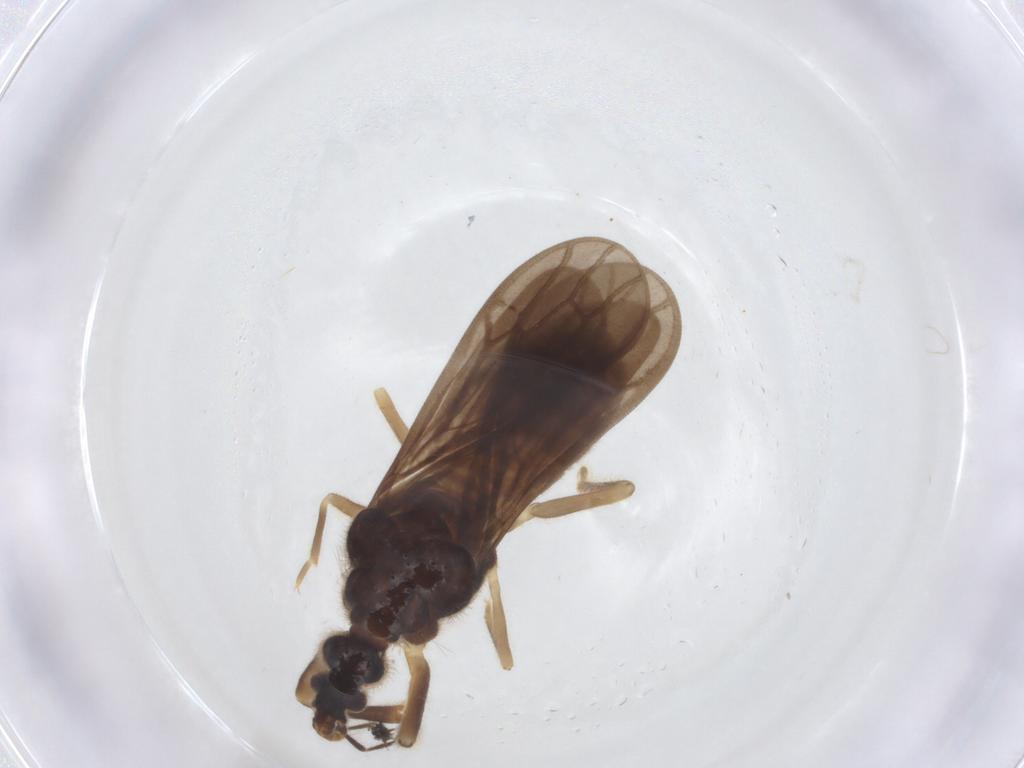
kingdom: Animalia
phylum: Arthropoda
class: Insecta
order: Hemiptera
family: Enicocephalidae
